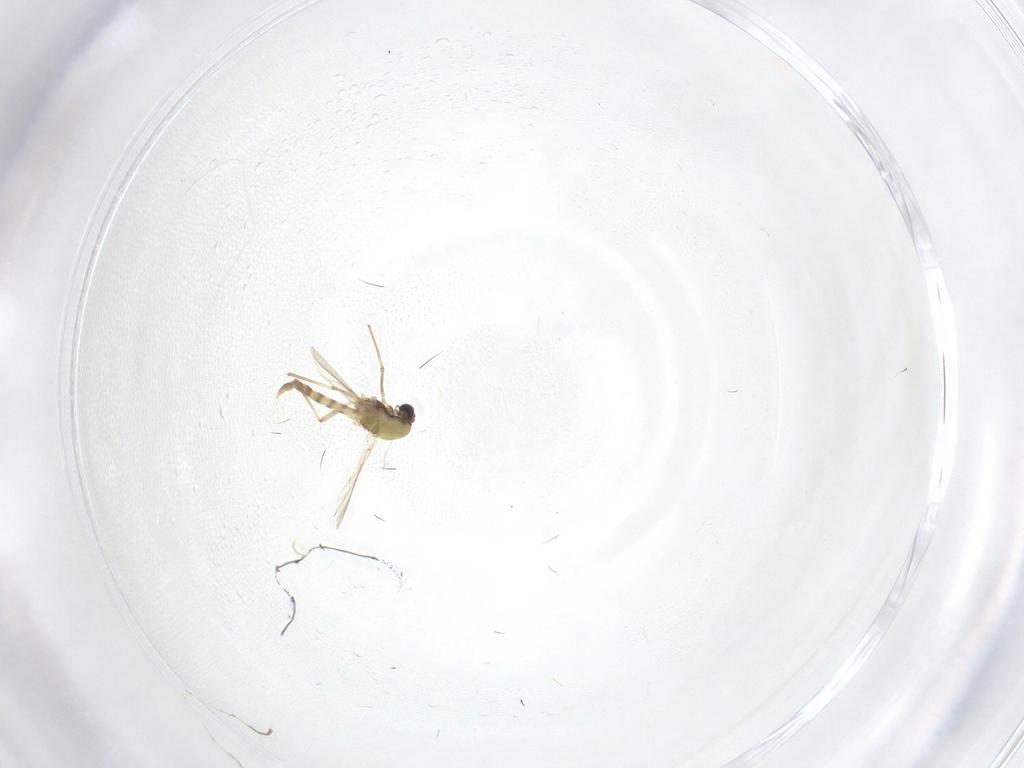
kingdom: Animalia
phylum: Arthropoda
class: Insecta
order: Diptera
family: Cecidomyiidae
